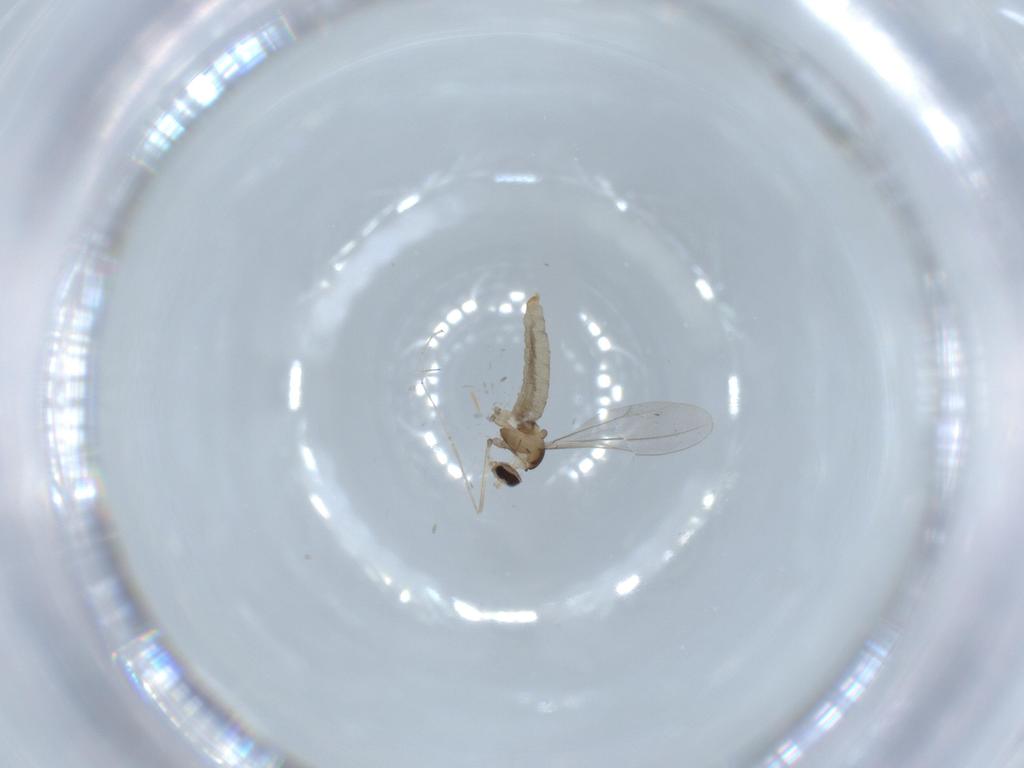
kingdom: Animalia
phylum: Arthropoda
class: Insecta
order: Diptera
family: Cecidomyiidae
